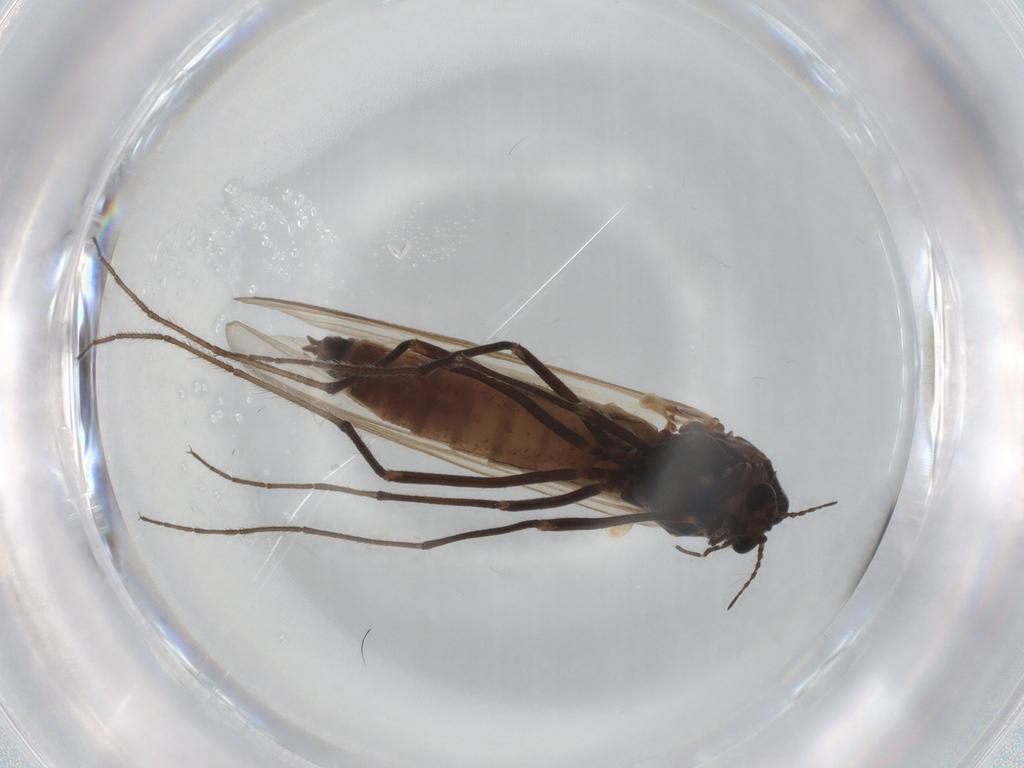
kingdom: Animalia
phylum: Arthropoda
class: Insecta
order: Diptera
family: Chironomidae
